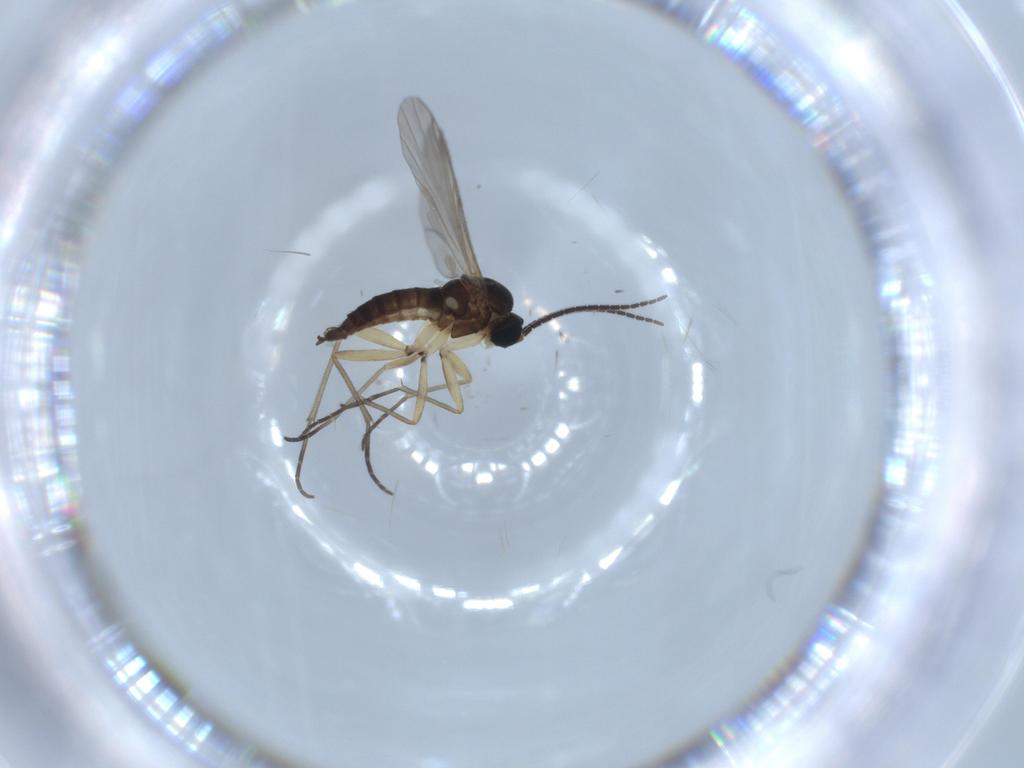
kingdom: Animalia
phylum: Arthropoda
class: Insecta
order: Diptera
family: Sciaridae
